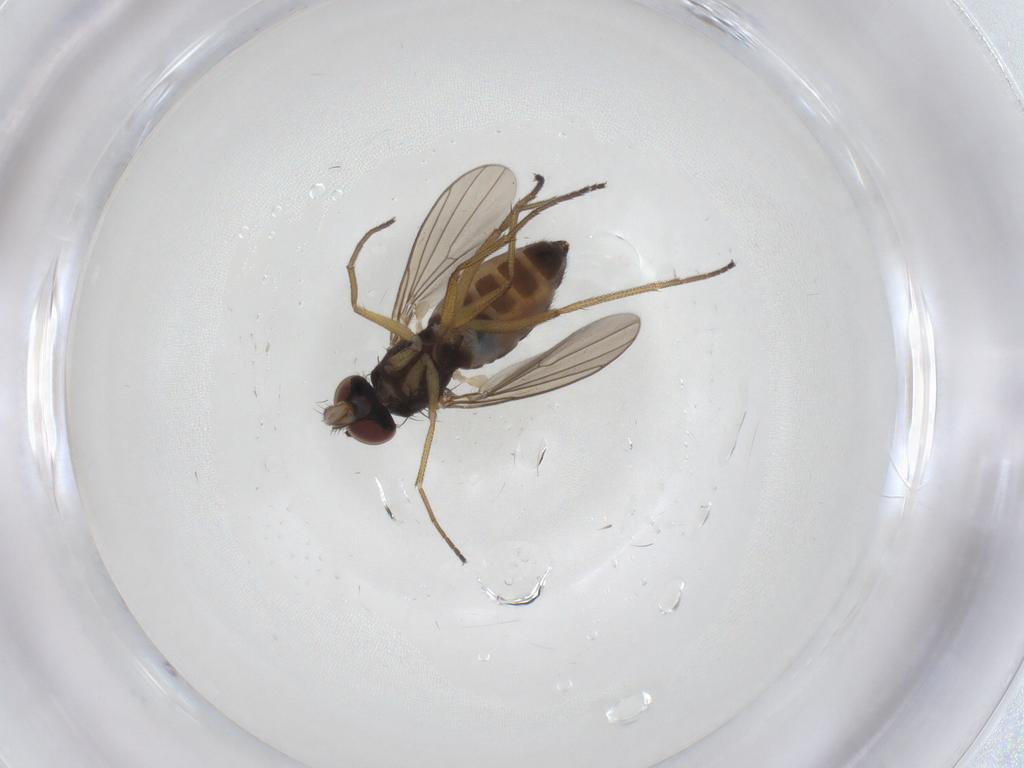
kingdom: Animalia
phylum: Arthropoda
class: Insecta
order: Diptera
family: Dolichopodidae
